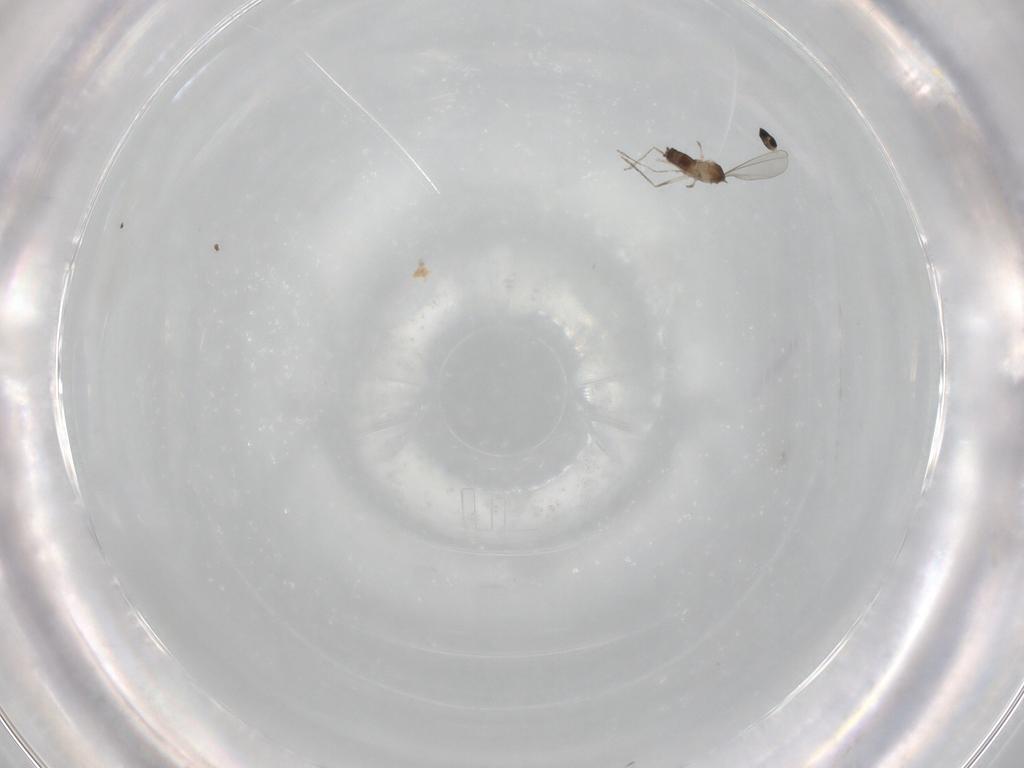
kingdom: Animalia
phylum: Arthropoda
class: Insecta
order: Diptera
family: Cecidomyiidae
